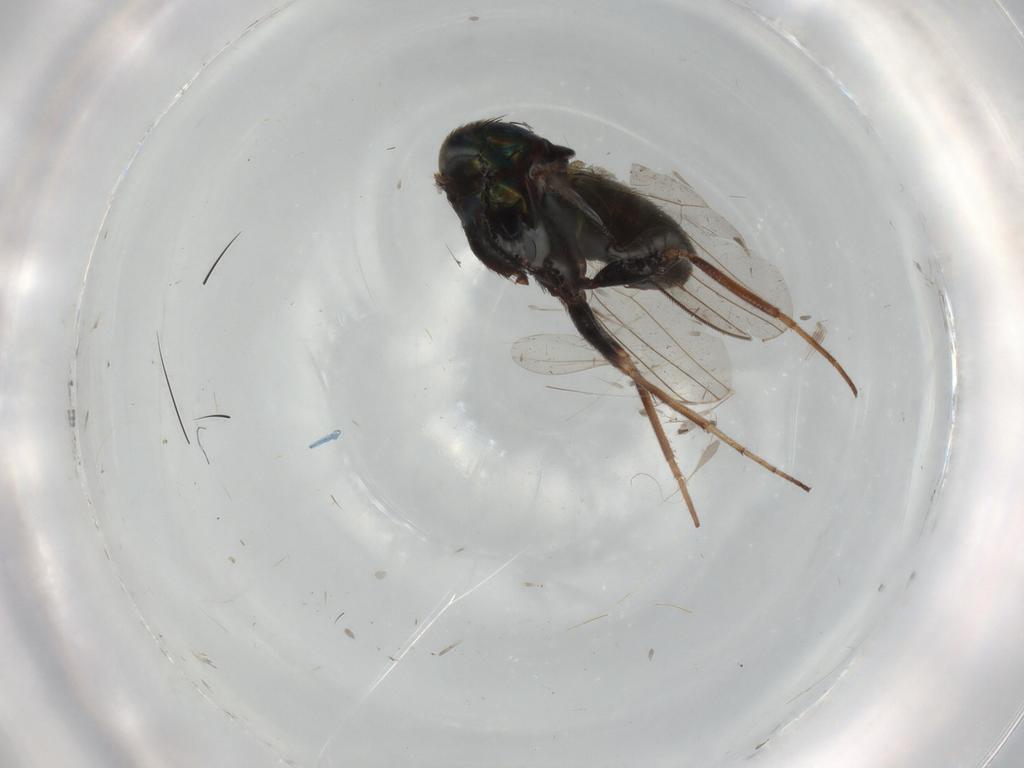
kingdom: Animalia
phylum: Arthropoda
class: Insecta
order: Diptera
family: Dolichopodidae
